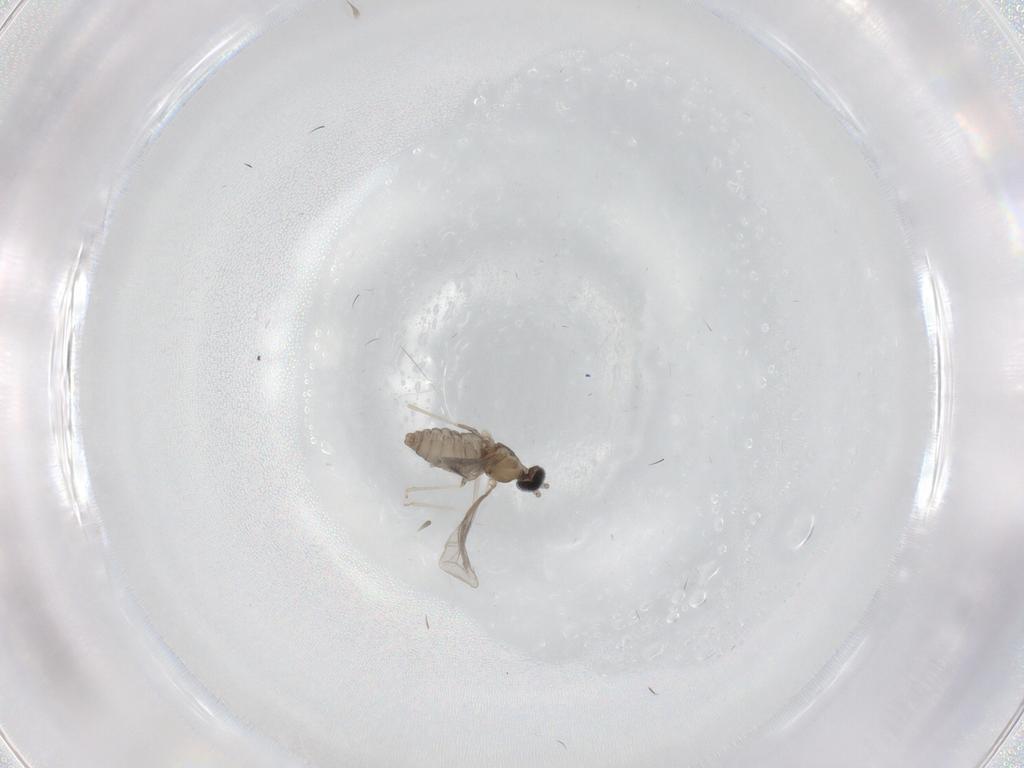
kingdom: Animalia
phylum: Arthropoda
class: Insecta
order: Diptera
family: Cecidomyiidae
